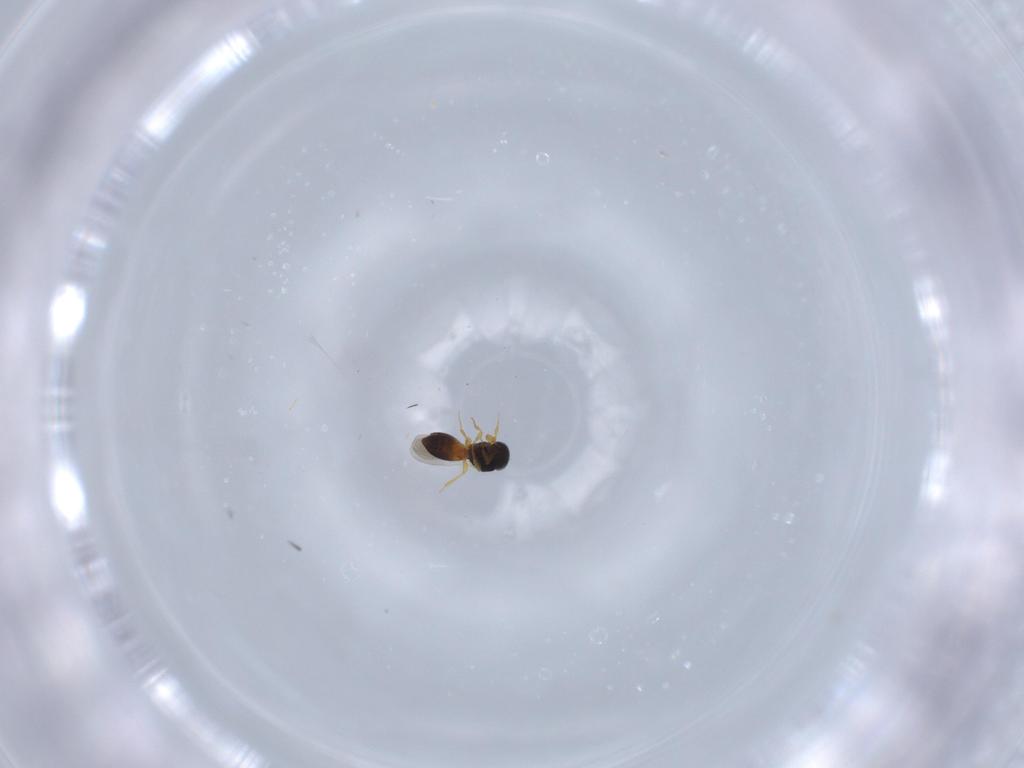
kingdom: Animalia
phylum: Arthropoda
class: Insecta
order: Hymenoptera
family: Platygastridae
